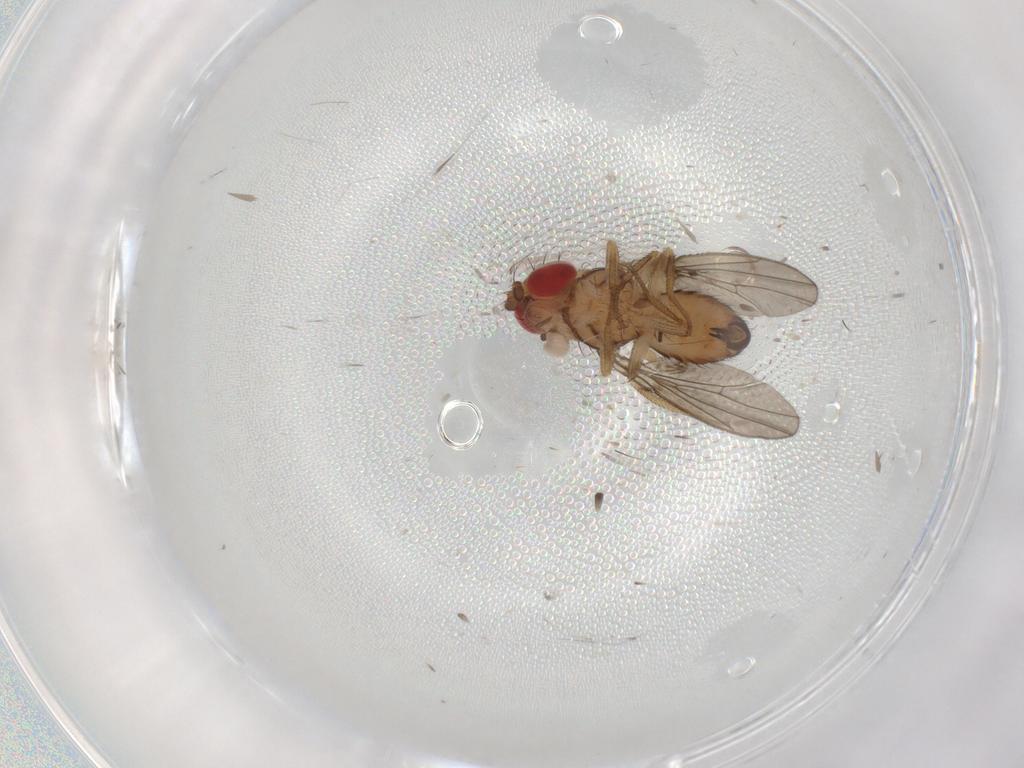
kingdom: Animalia
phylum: Arthropoda
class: Insecta
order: Diptera
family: Drosophilidae
